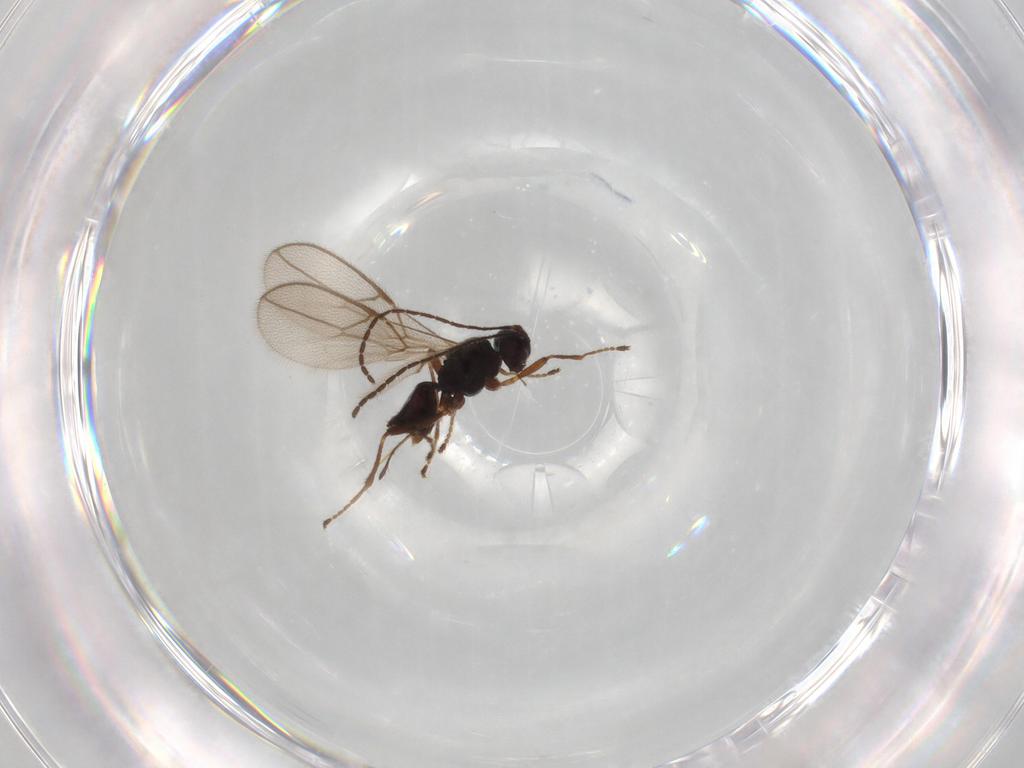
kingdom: Animalia
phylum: Arthropoda
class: Insecta
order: Hymenoptera
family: Braconidae
